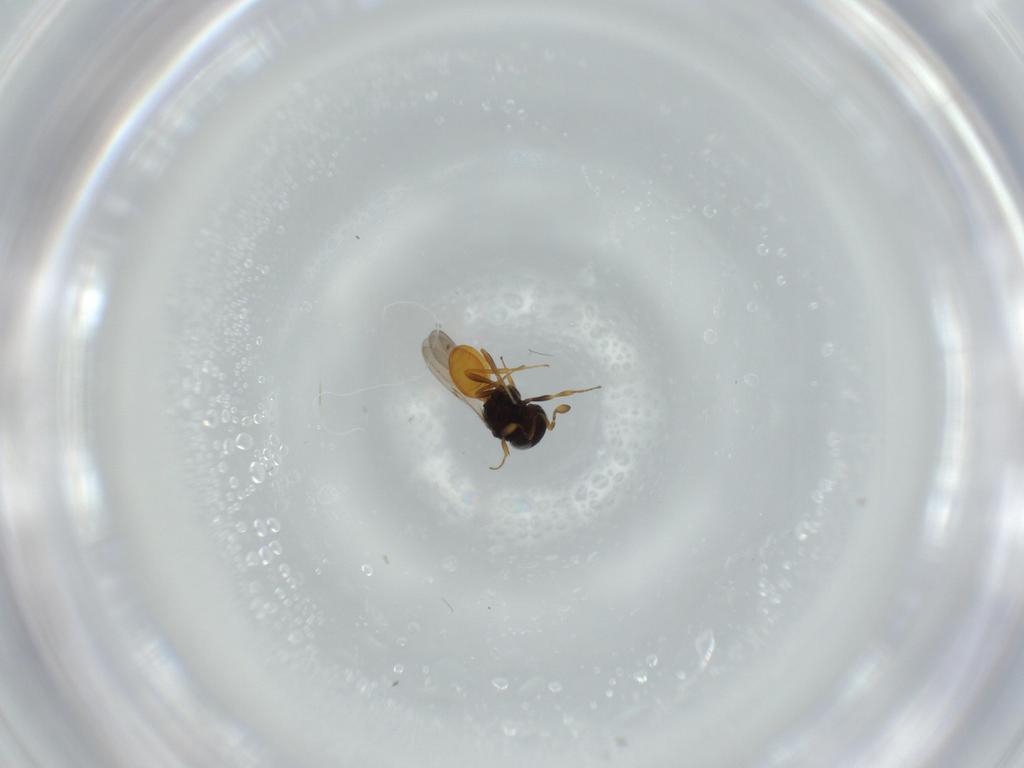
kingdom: Animalia
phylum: Arthropoda
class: Insecta
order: Hymenoptera
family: Scelionidae
